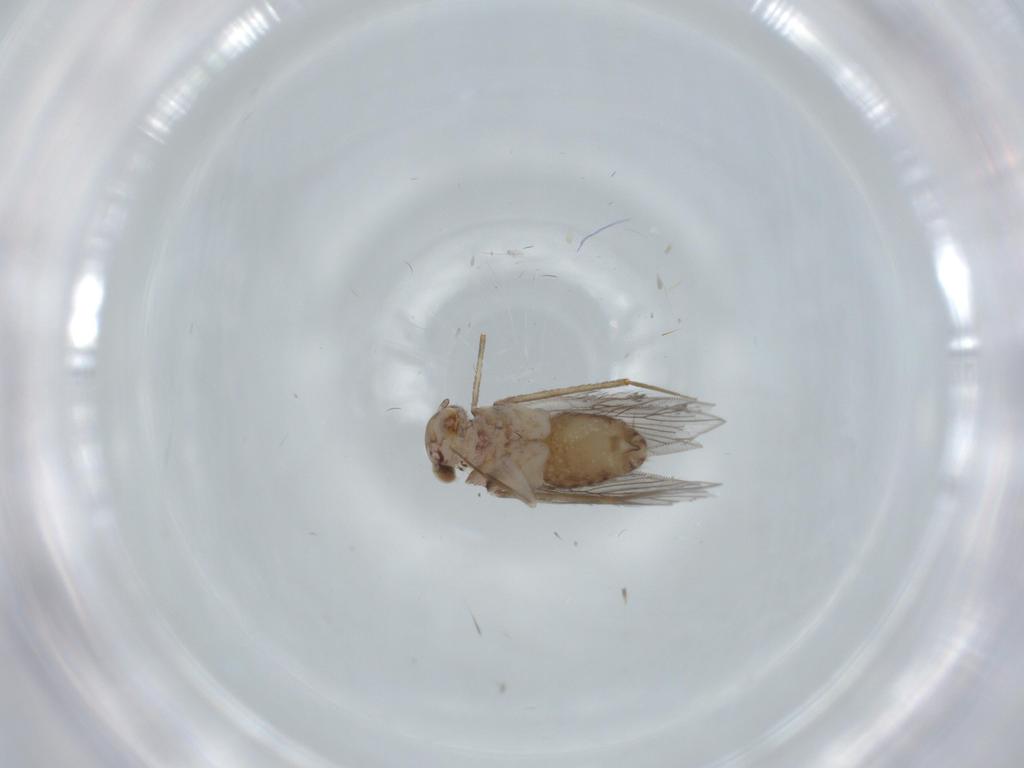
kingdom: Animalia
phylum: Arthropoda
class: Insecta
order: Psocodea
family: Lepidopsocidae
